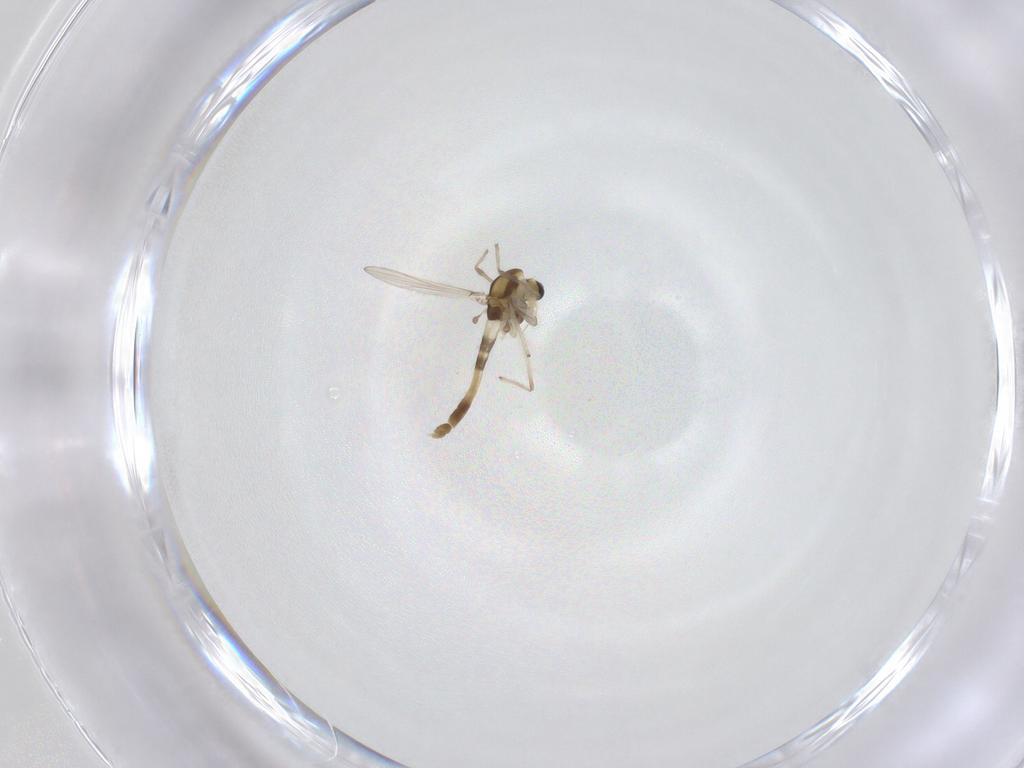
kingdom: Animalia
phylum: Arthropoda
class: Insecta
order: Diptera
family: Chironomidae
